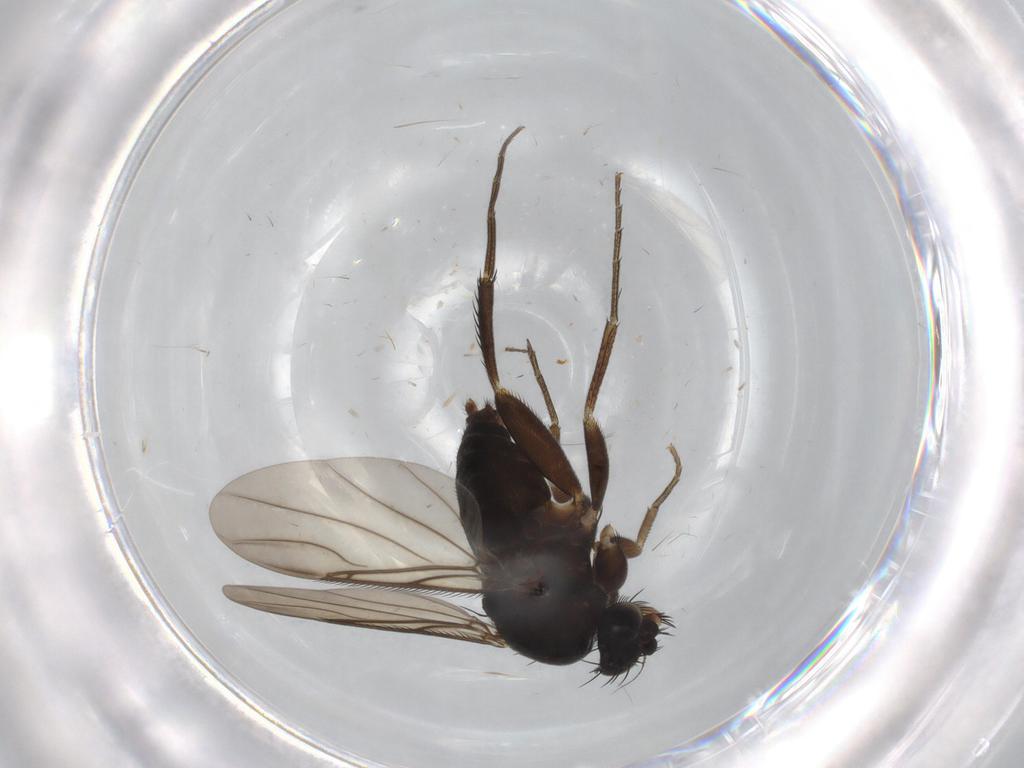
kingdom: Animalia
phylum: Arthropoda
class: Insecta
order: Diptera
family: Phoridae
